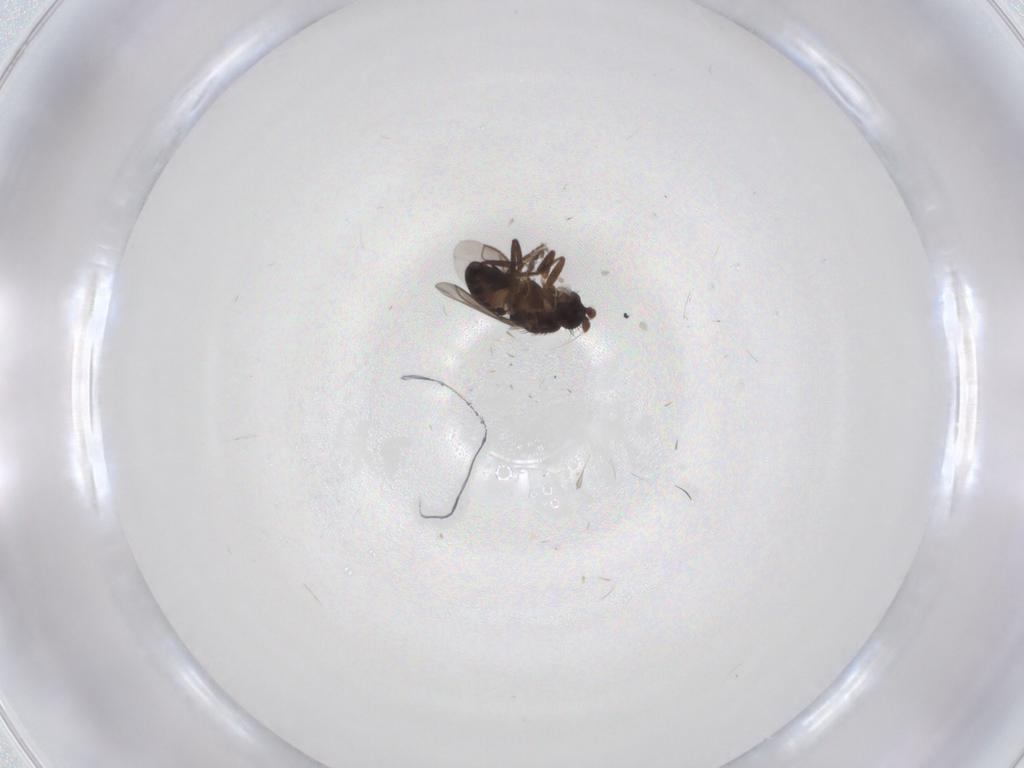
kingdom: Animalia
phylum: Arthropoda
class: Insecta
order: Diptera
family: Sphaeroceridae
